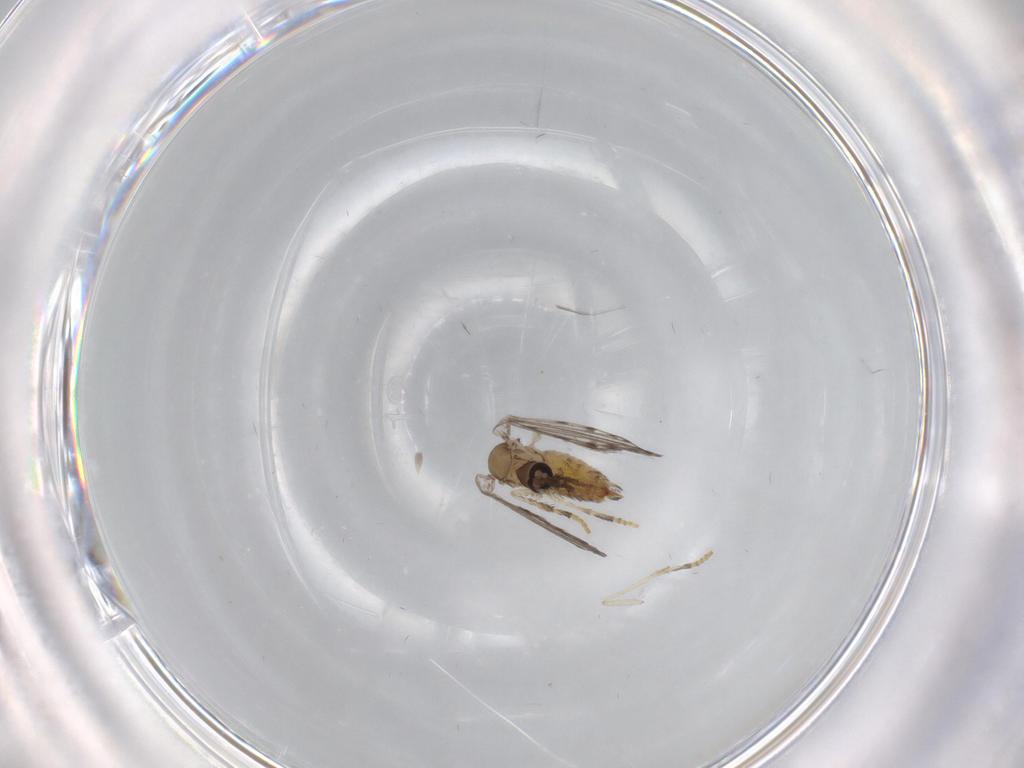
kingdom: Animalia
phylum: Arthropoda
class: Insecta
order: Diptera
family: Psychodidae
